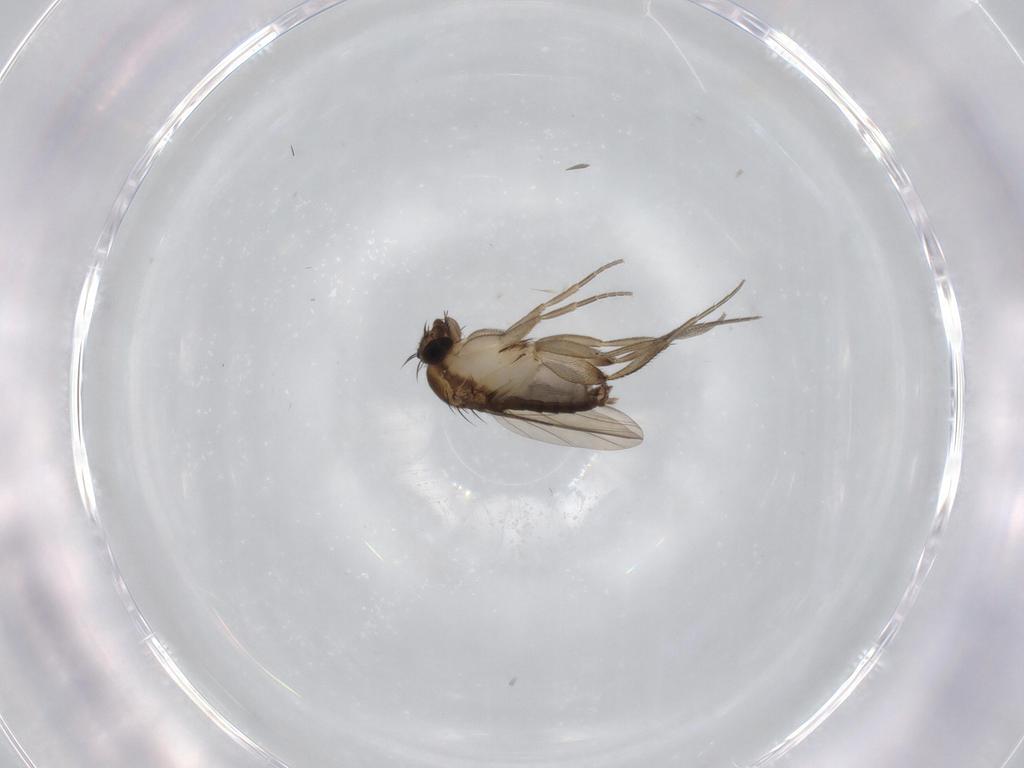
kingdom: Animalia
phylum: Arthropoda
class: Insecta
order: Diptera
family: Phoridae
